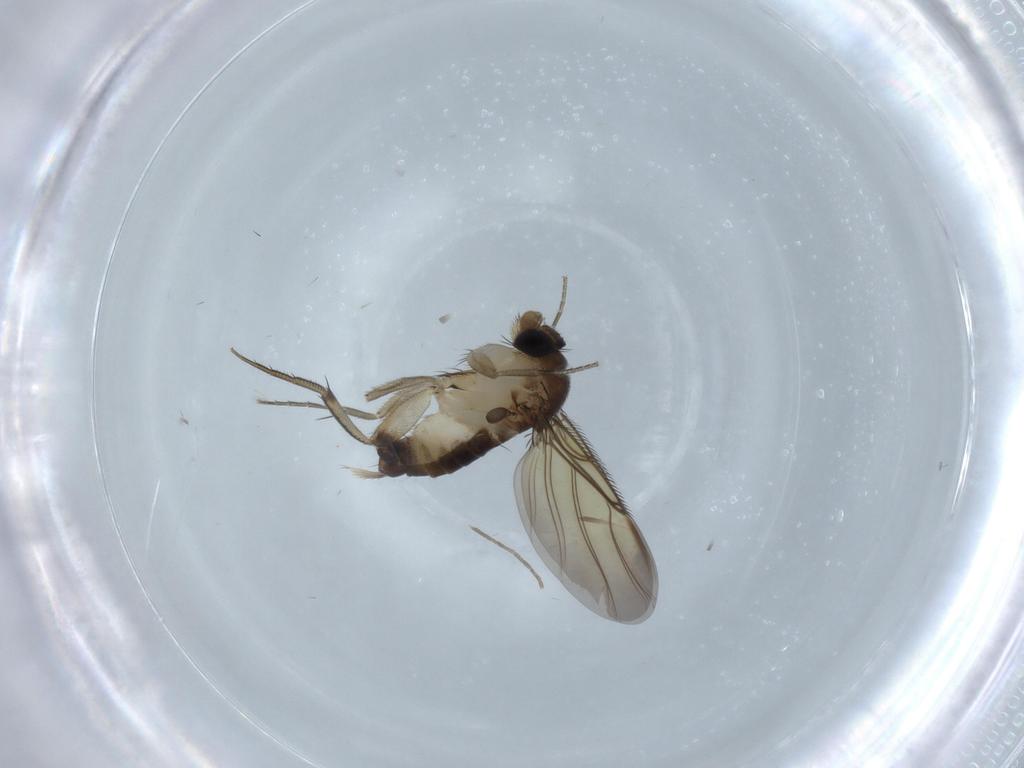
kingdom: Animalia
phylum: Arthropoda
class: Insecta
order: Diptera
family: Phoridae
